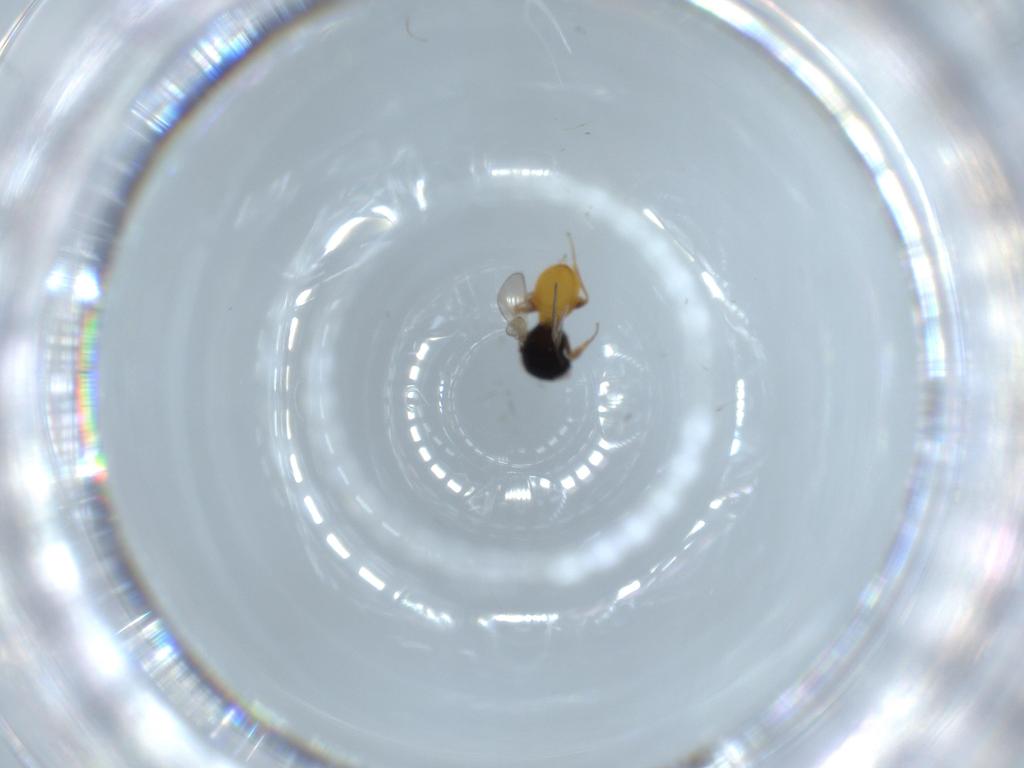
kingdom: Animalia
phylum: Arthropoda
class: Insecta
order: Hymenoptera
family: Scelionidae
